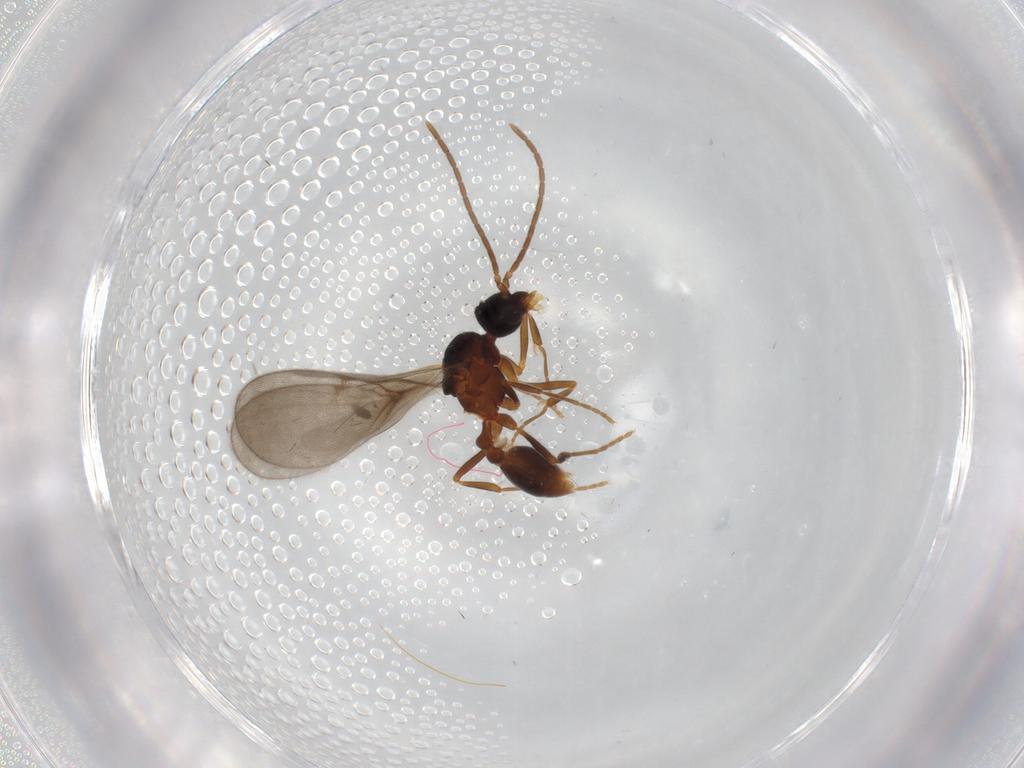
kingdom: Animalia
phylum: Arthropoda
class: Insecta
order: Hymenoptera
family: Formicidae
